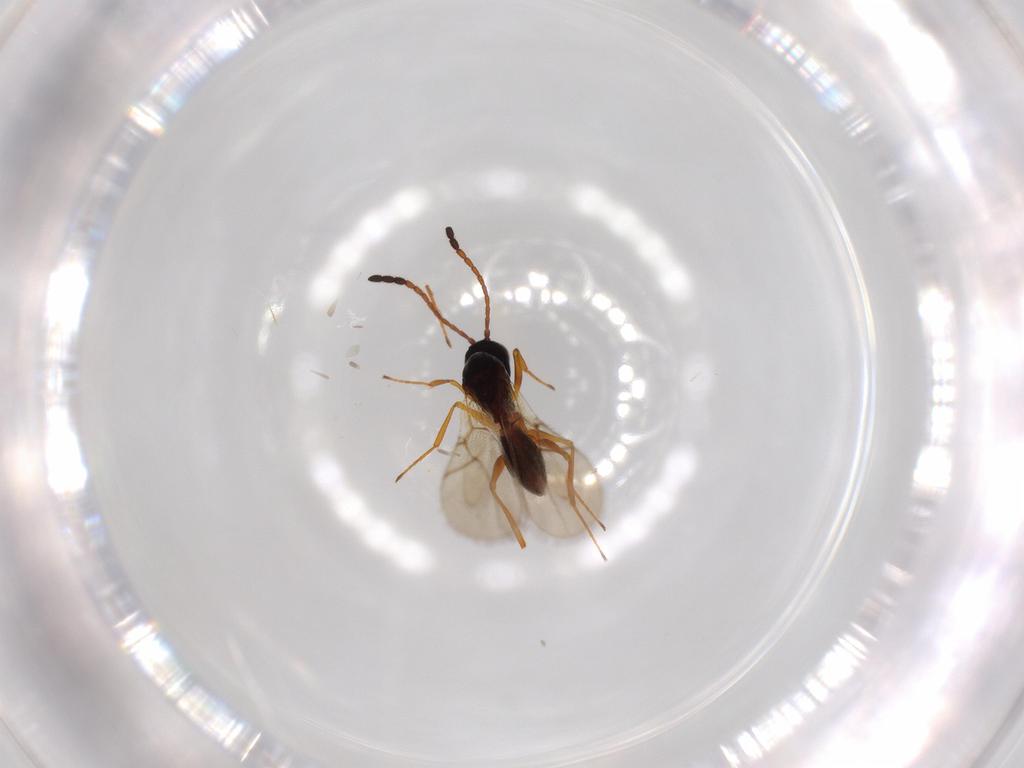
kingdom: Animalia
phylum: Arthropoda
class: Insecta
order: Hymenoptera
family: Figitidae
